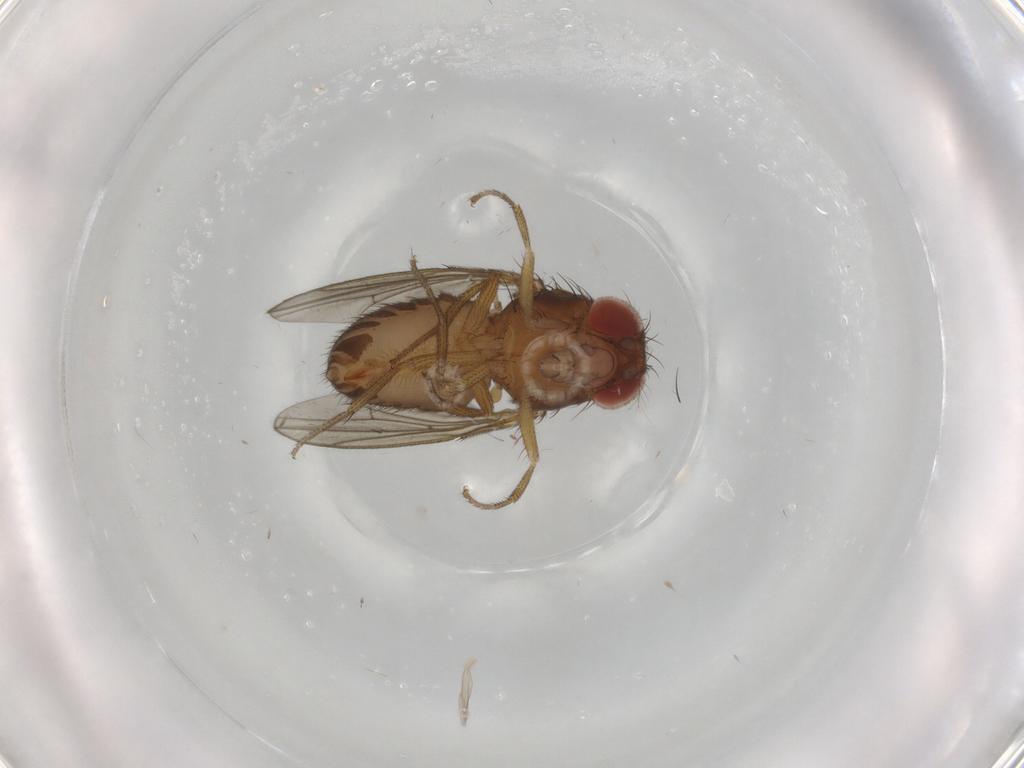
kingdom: Animalia
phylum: Arthropoda
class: Insecta
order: Diptera
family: Drosophilidae
